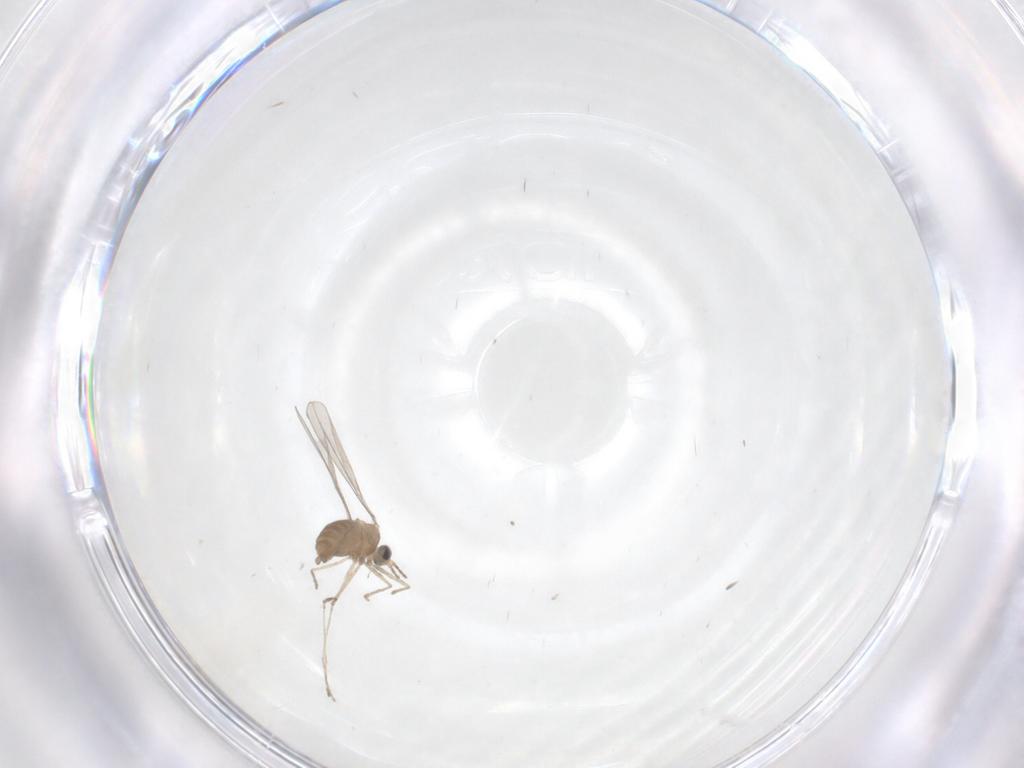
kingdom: Animalia
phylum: Arthropoda
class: Insecta
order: Diptera
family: Cecidomyiidae
